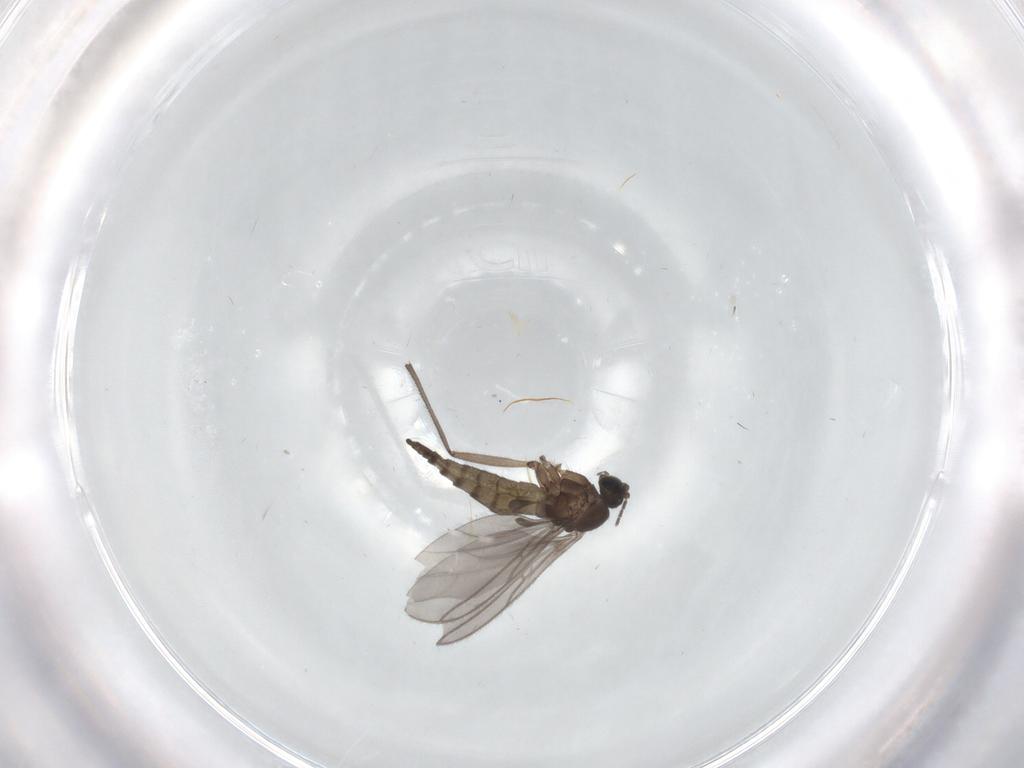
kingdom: Animalia
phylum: Arthropoda
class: Insecta
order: Diptera
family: Sciaridae
